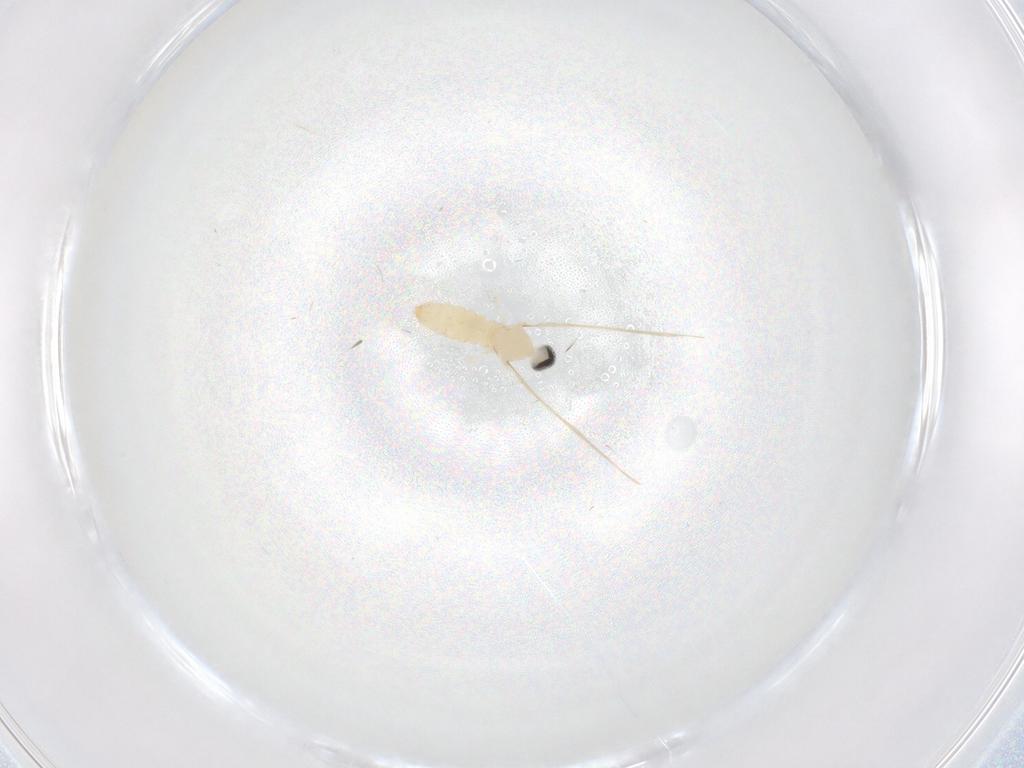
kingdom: Animalia
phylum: Arthropoda
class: Insecta
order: Diptera
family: Cecidomyiidae
